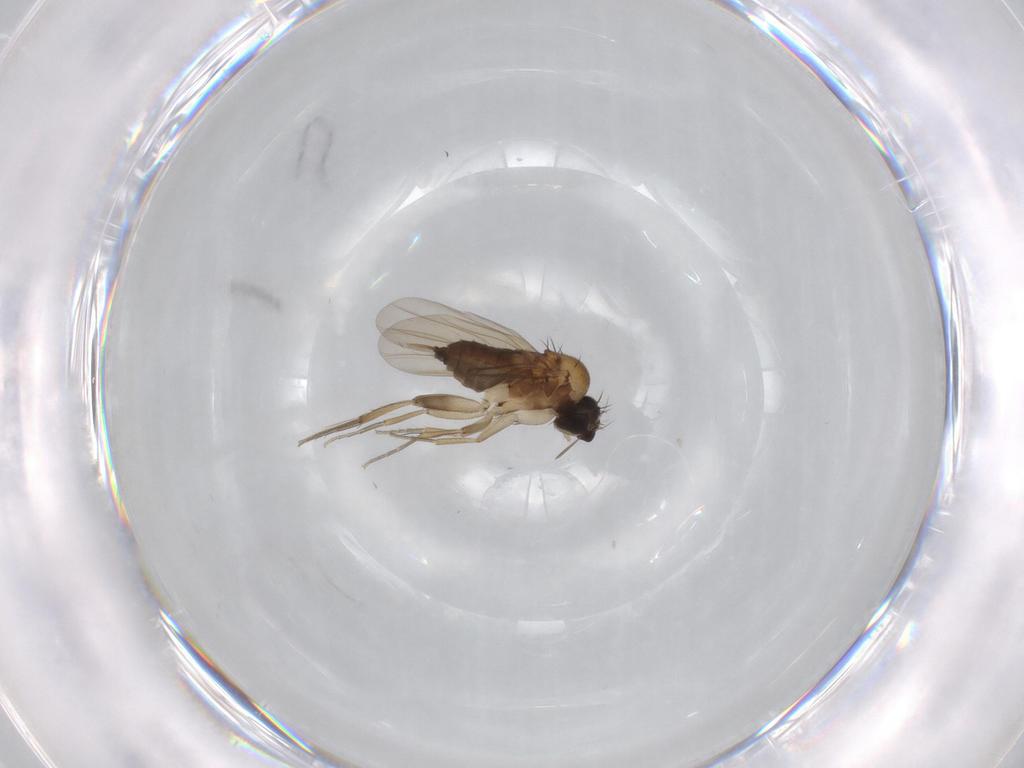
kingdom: Animalia
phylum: Arthropoda
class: Insecta
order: Diptera
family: Phoridae
